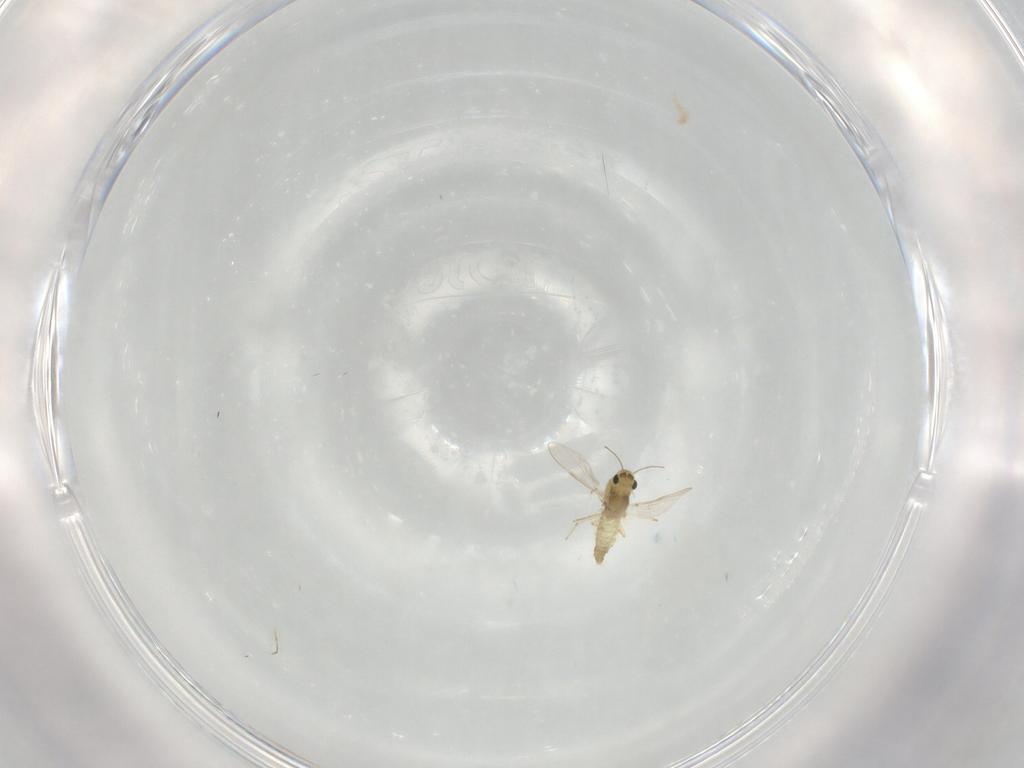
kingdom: Animalia
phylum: Arthropoda
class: Insecta
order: Diptera
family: Chironomidae
